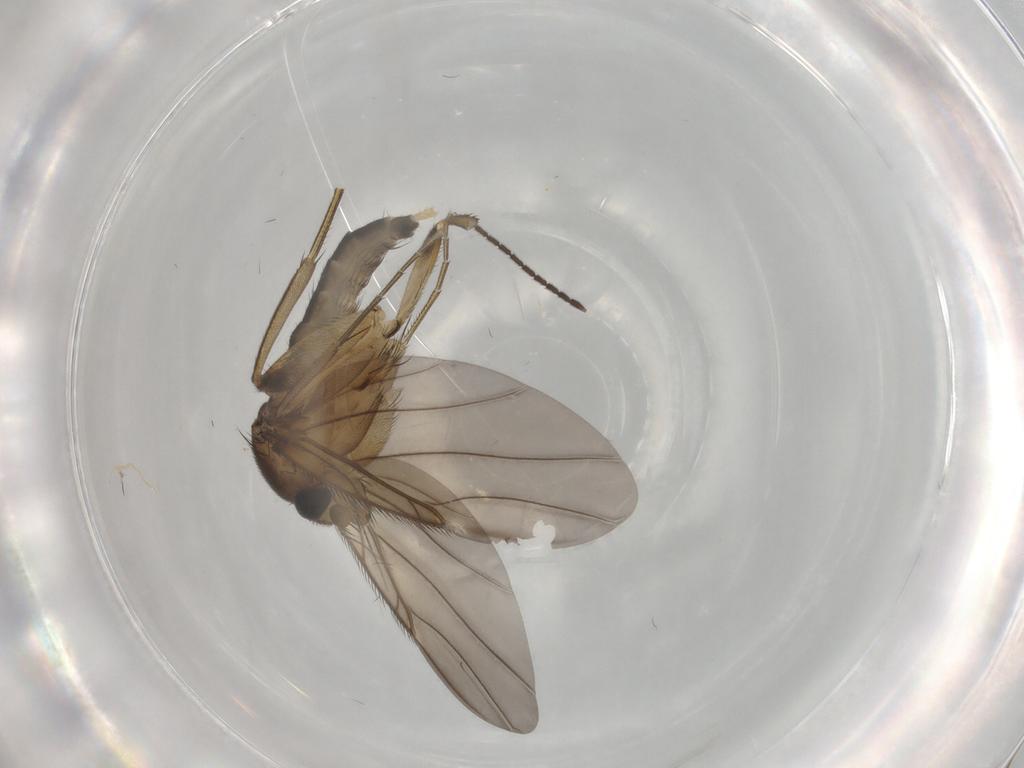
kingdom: Animalia
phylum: Arthropoda
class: Insecta
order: Diptera
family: Phoridae
